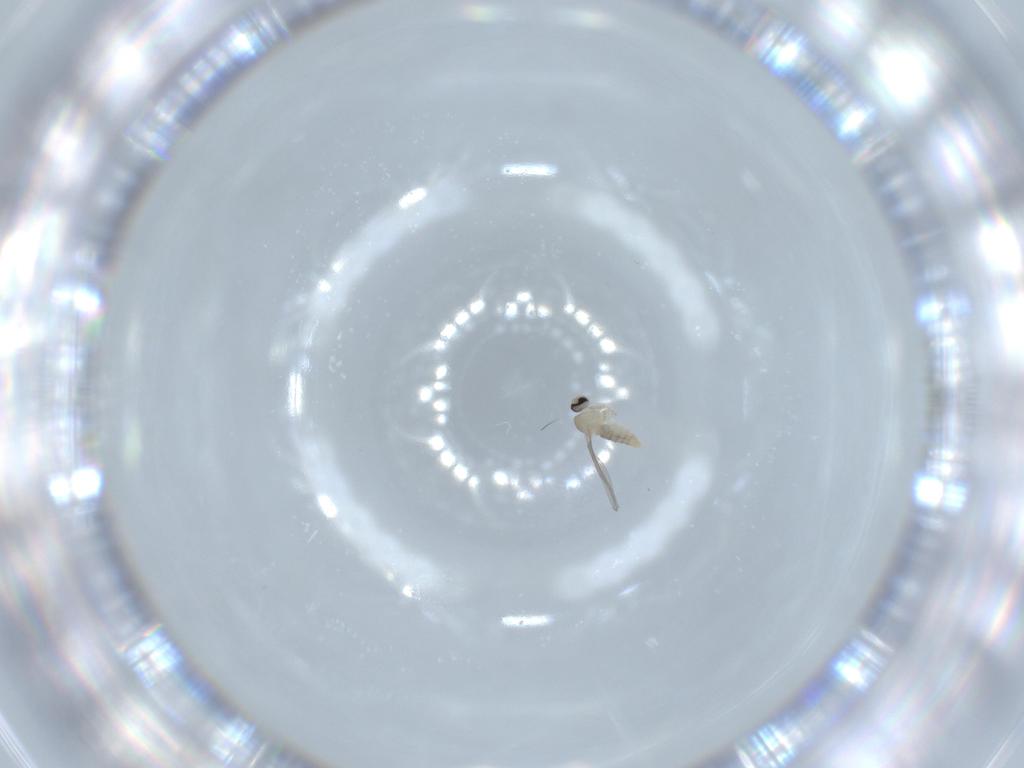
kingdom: Animalia
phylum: Arthropoda
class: Insecta
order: Diptera
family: Cecidomyiidae
